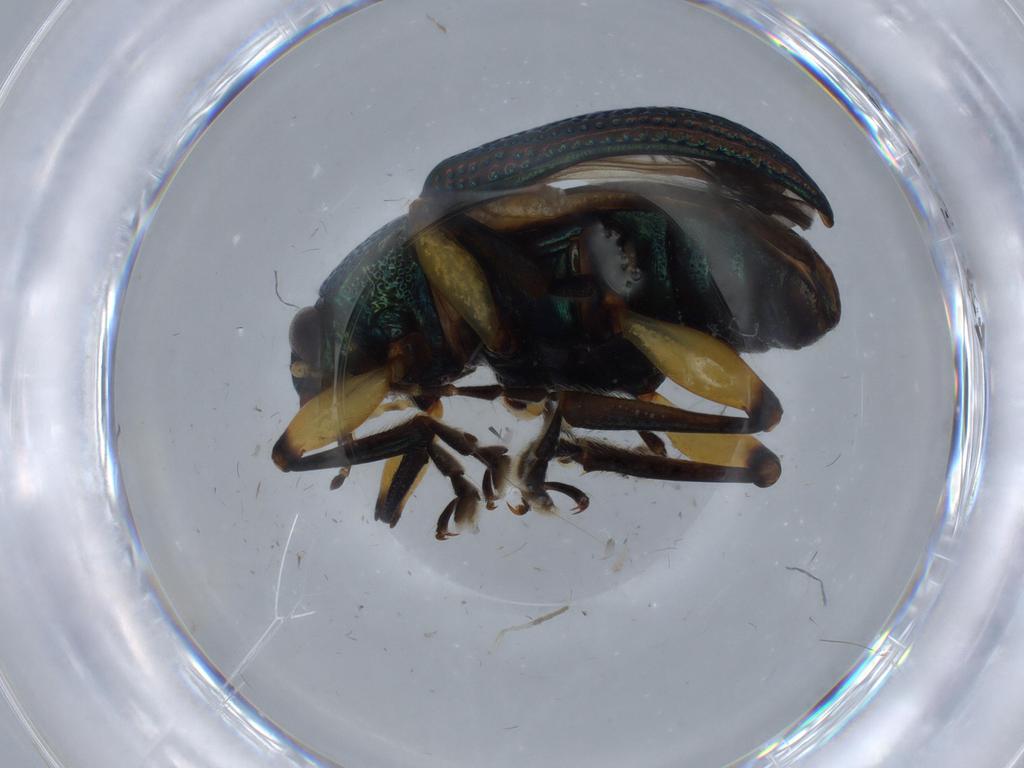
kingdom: Animalia
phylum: Arthropoda
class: Insecta
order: Coleoptera
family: Chrysomelidae
